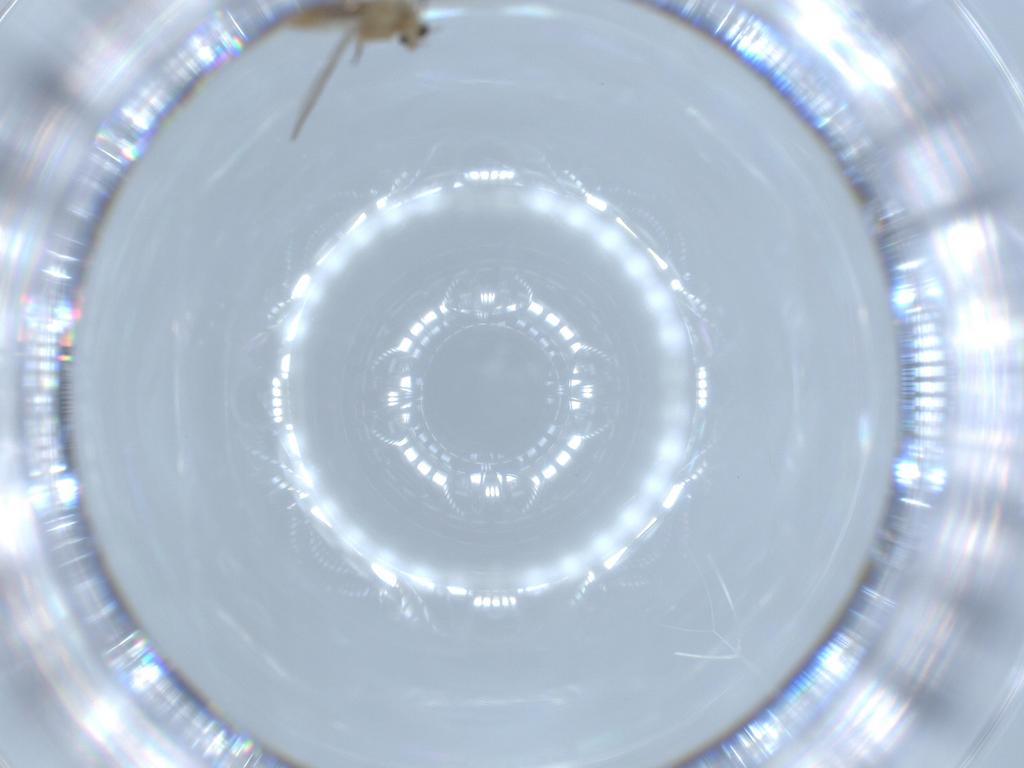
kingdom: Animalia
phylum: Arthropoda
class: Insecta
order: Diptera
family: Chironomidae
